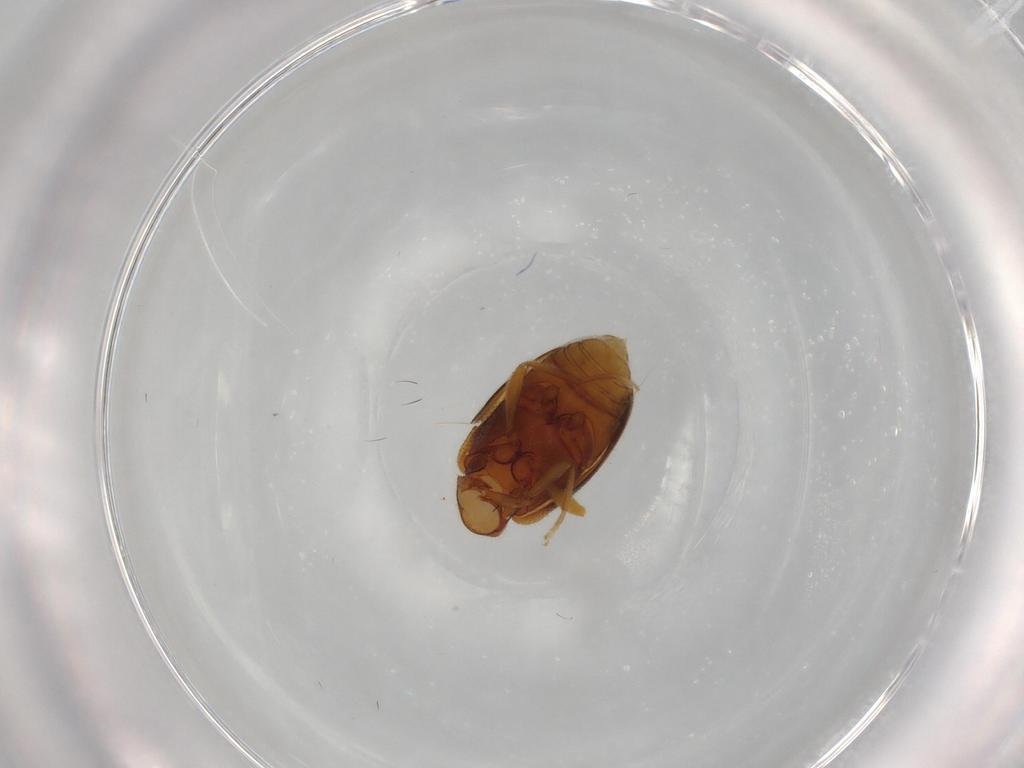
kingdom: Animalia
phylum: Arthropoda
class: Insecta
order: Coleoptera
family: Aderidae
